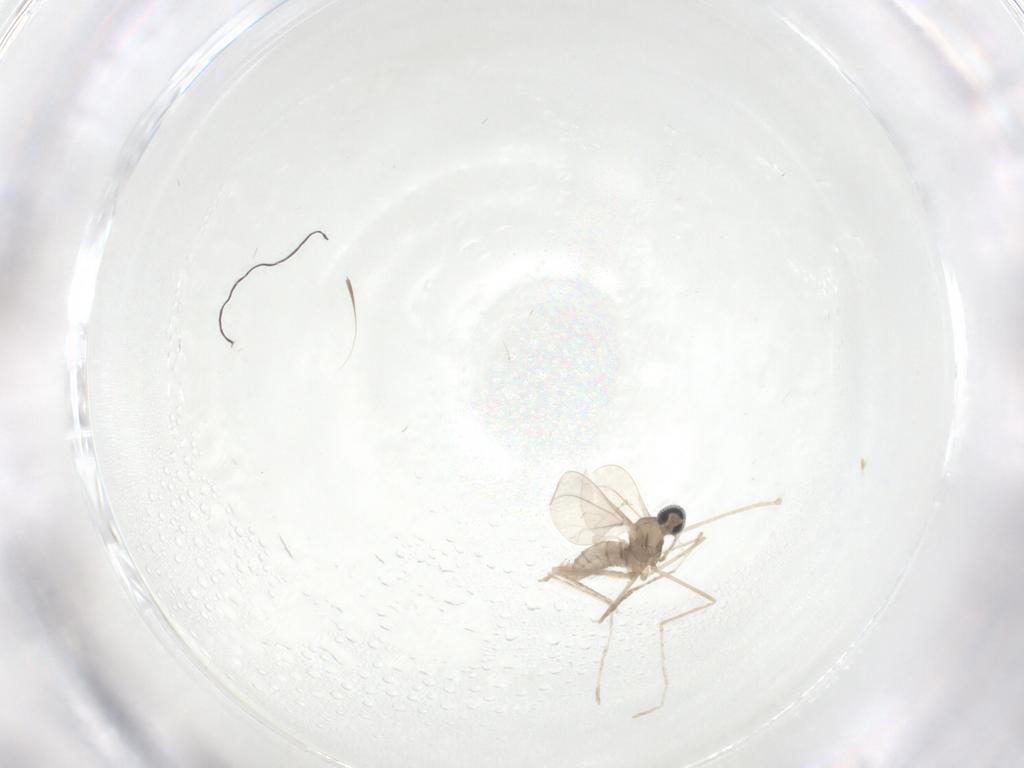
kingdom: Animalia
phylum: Arthropoda
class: Insecta
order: Diptera
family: Cecidomyiidae
